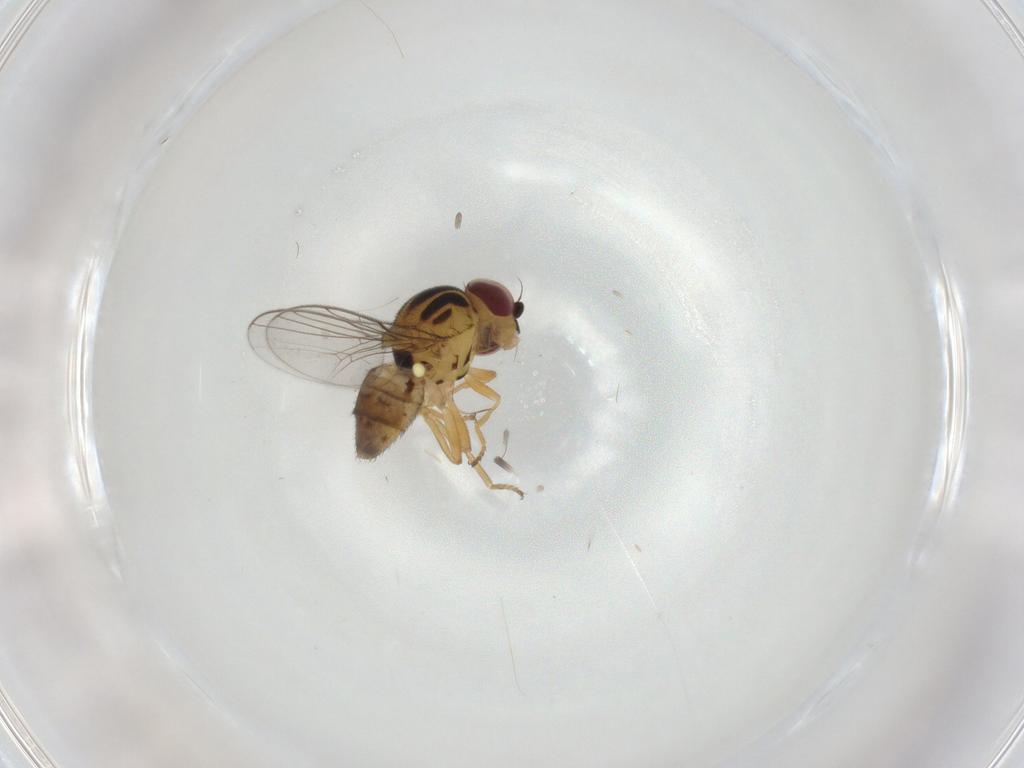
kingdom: Animalia
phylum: Arthropoda
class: Insecta
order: Diptera
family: Chloropidae
